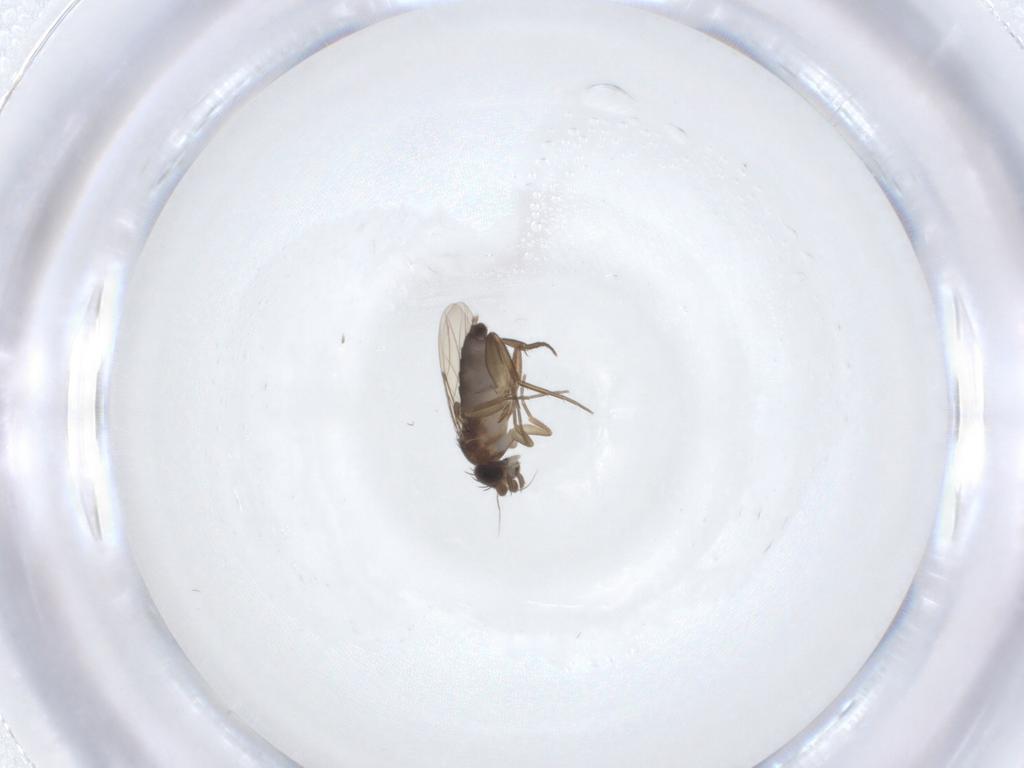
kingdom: Animalia
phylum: Arthropoda
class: Insecta
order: Diptera
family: Phoridae
